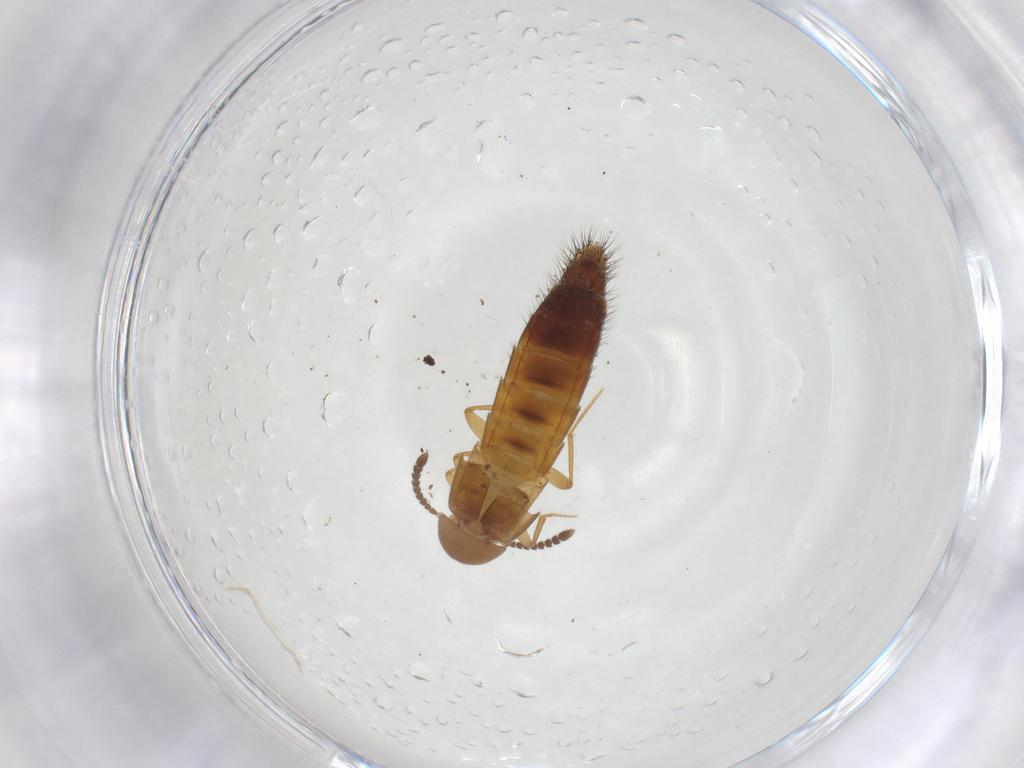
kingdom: Animalia
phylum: Arthropoda
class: Insecta
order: Coleoptera
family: Staphylinidae
